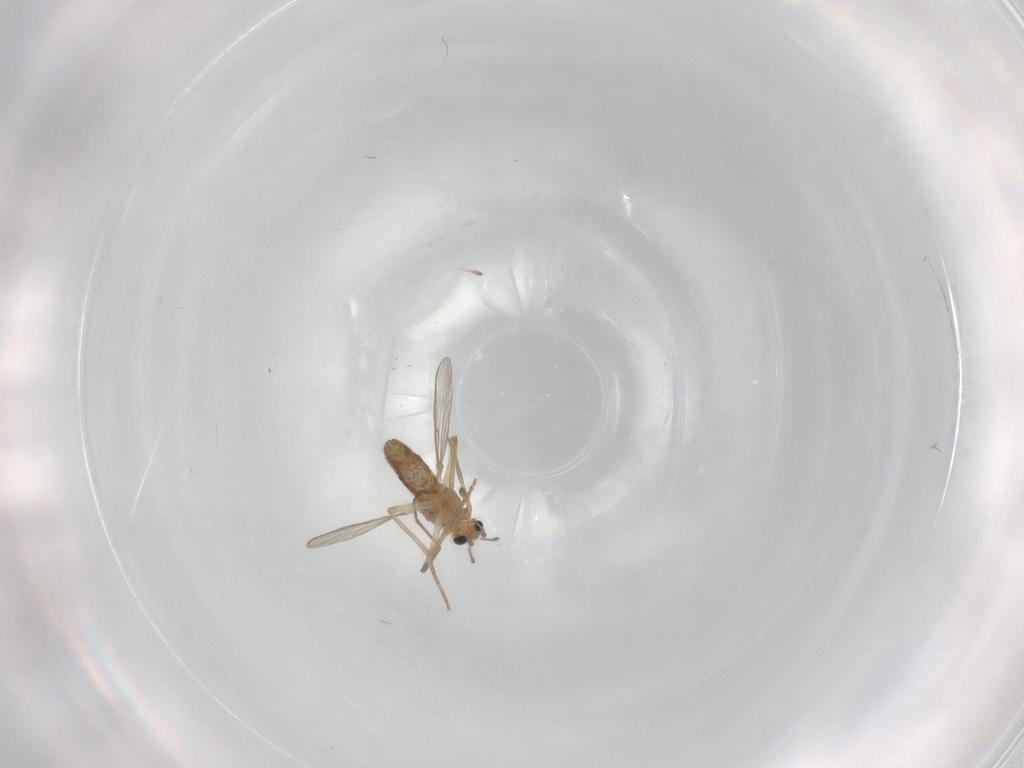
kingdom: Animalia
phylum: Arthropoda
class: Insecta
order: Diptera
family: Chironomidae
